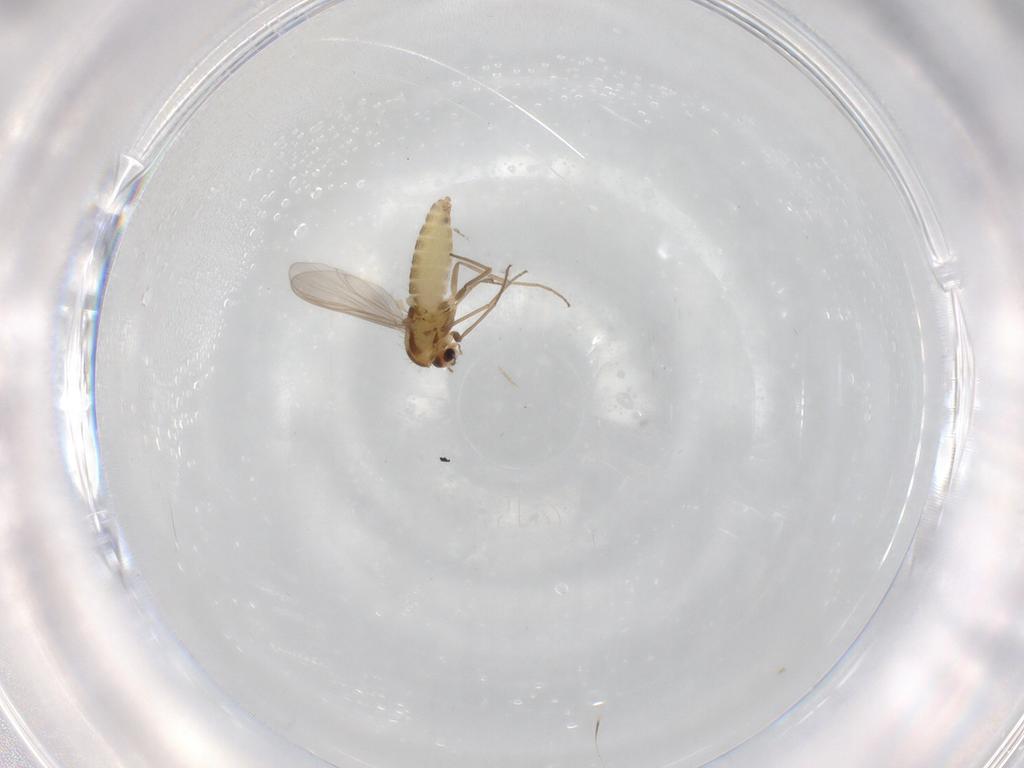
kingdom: Animalia
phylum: Arthropoda
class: Insecta
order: Diptera
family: Chironomidae
